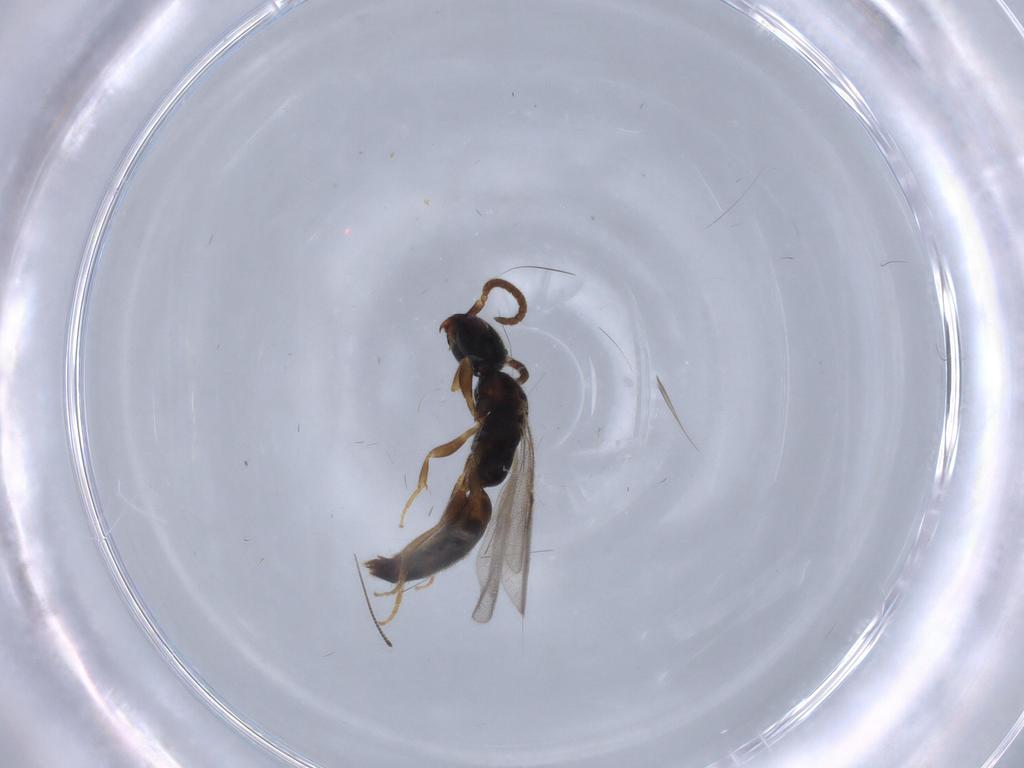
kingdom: Animalia
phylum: Arthropoda
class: Insecta
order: Hymenoptera
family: Bethylidae
